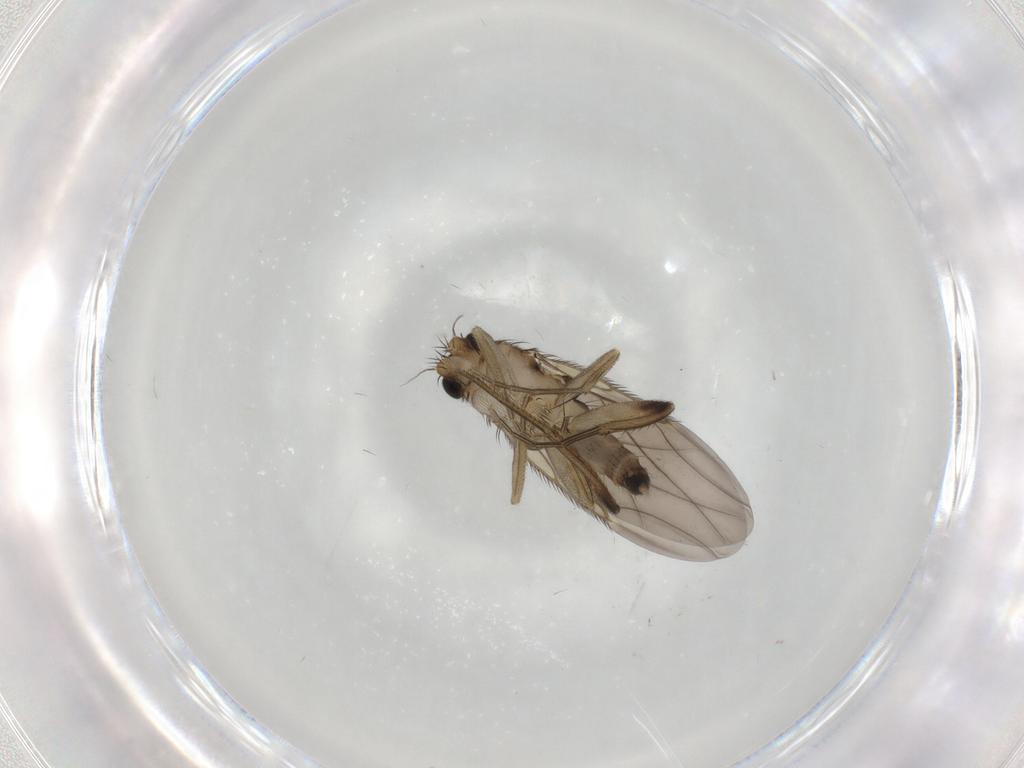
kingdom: Animalia
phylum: Arthropoda
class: Insecta
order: Diptera
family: Phoridae
